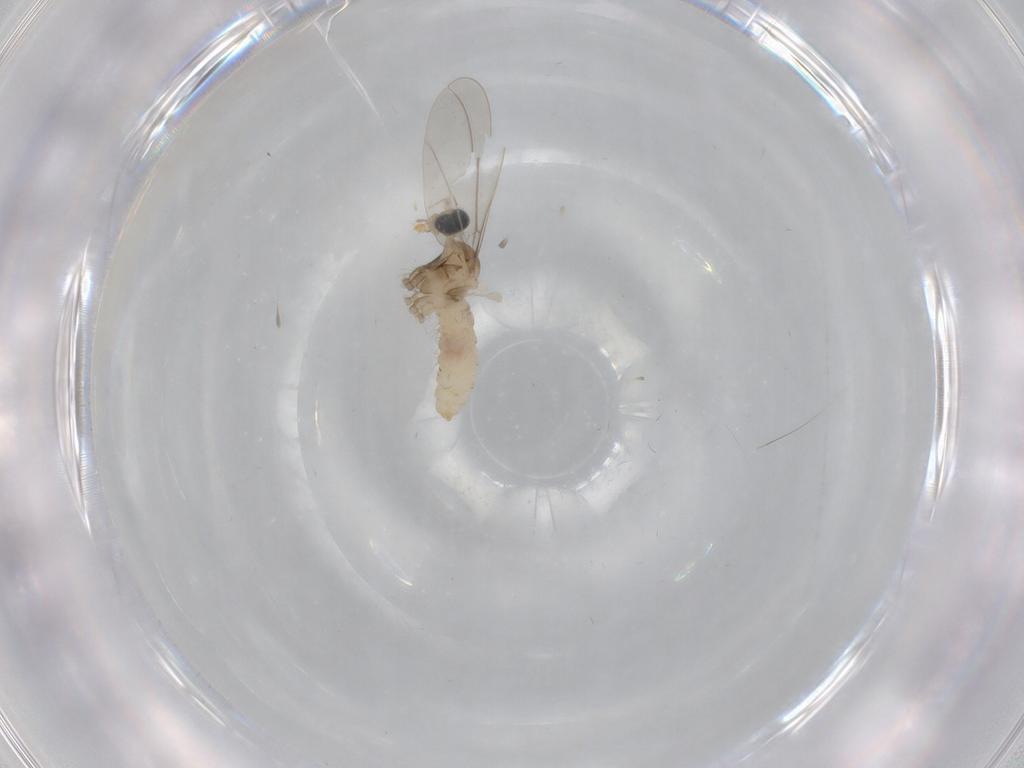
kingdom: Animalia
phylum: Arthropoda
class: Insecta
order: Diptera
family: Cecidomyiidae
